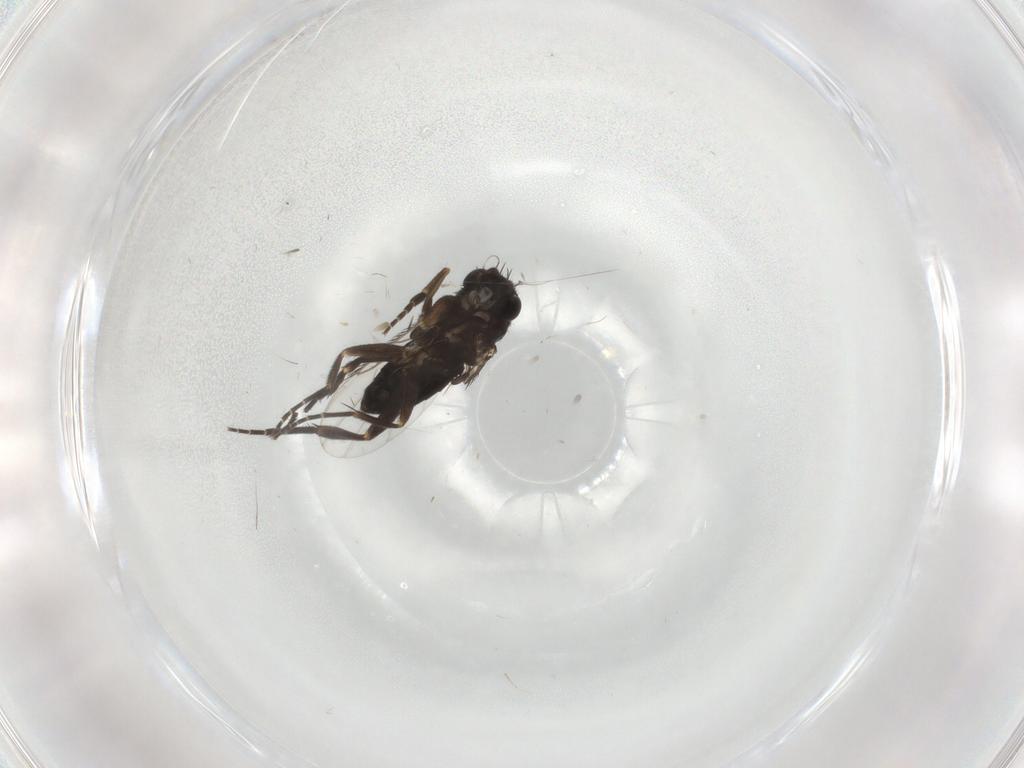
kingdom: Animalia
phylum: Arthropoda
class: Insecta
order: Diptera
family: Phoridae
